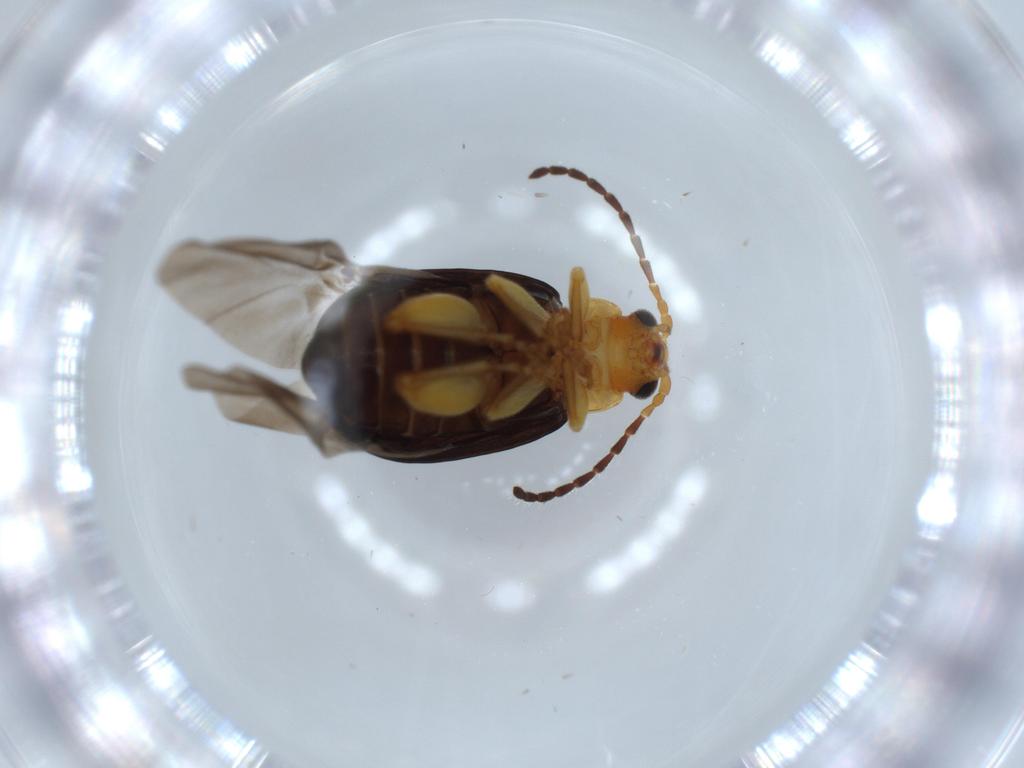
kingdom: Animalia
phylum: Arthropoda
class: Insecta
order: Coleoptera
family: Chrysomelidae
